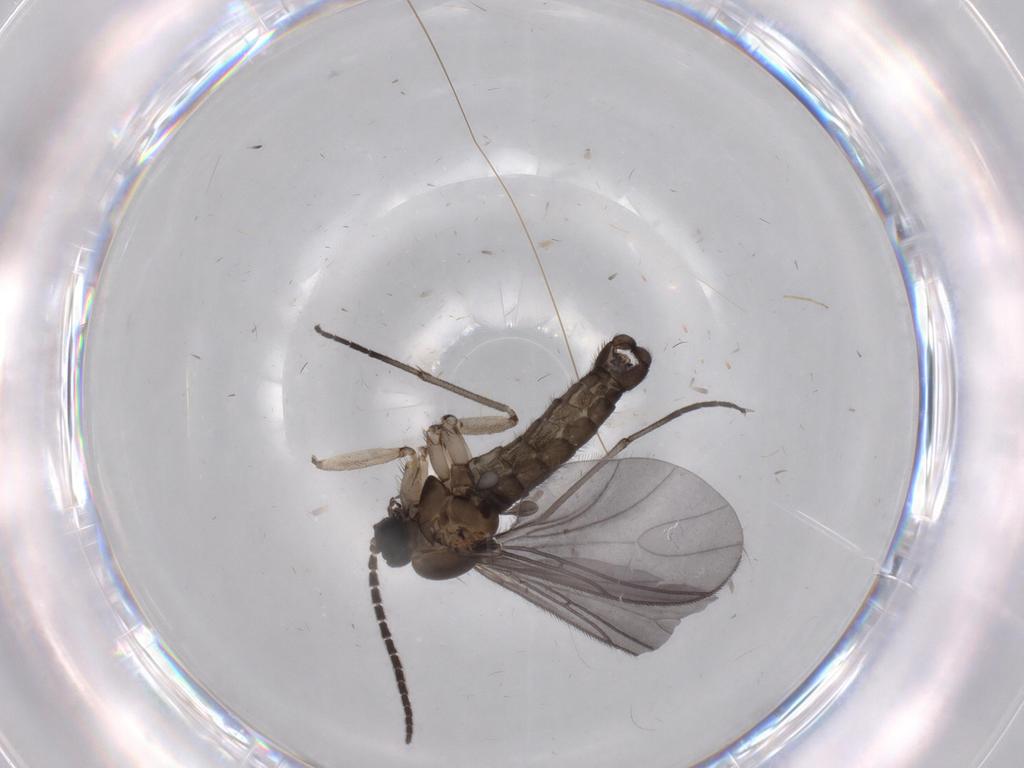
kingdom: Animalia
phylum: Arthropoda
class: Insecta
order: Diptera
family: Sciaridae
